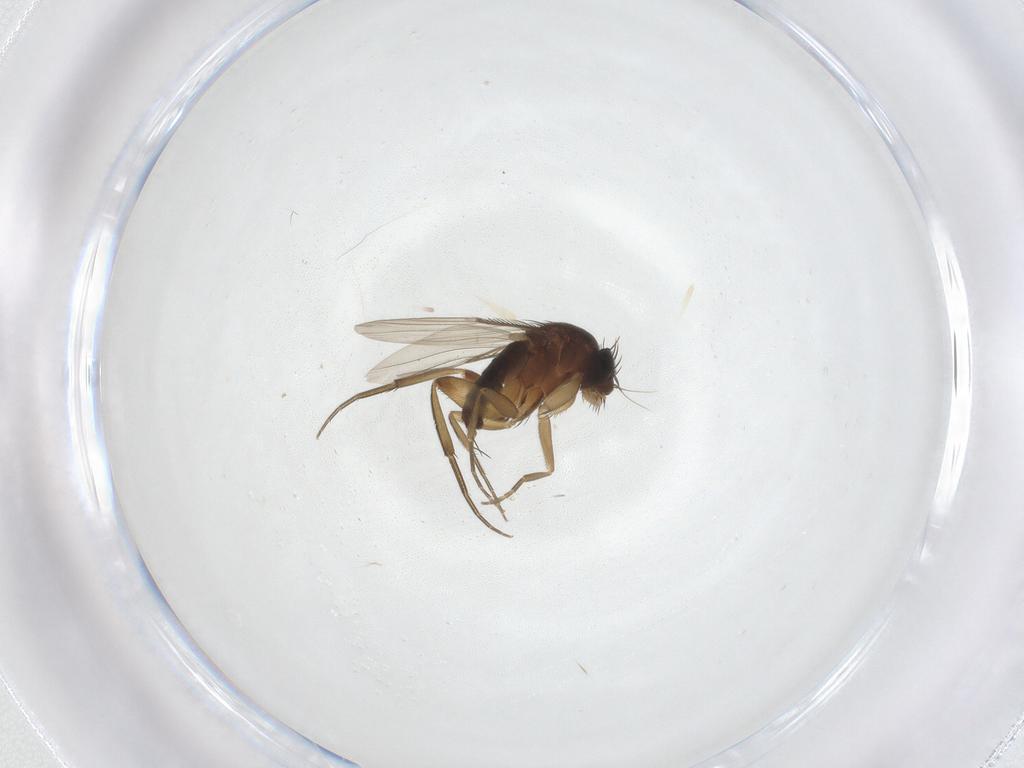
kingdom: Animalia
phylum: Arthropoda
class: Insecta
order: Diptera
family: Phoridae
